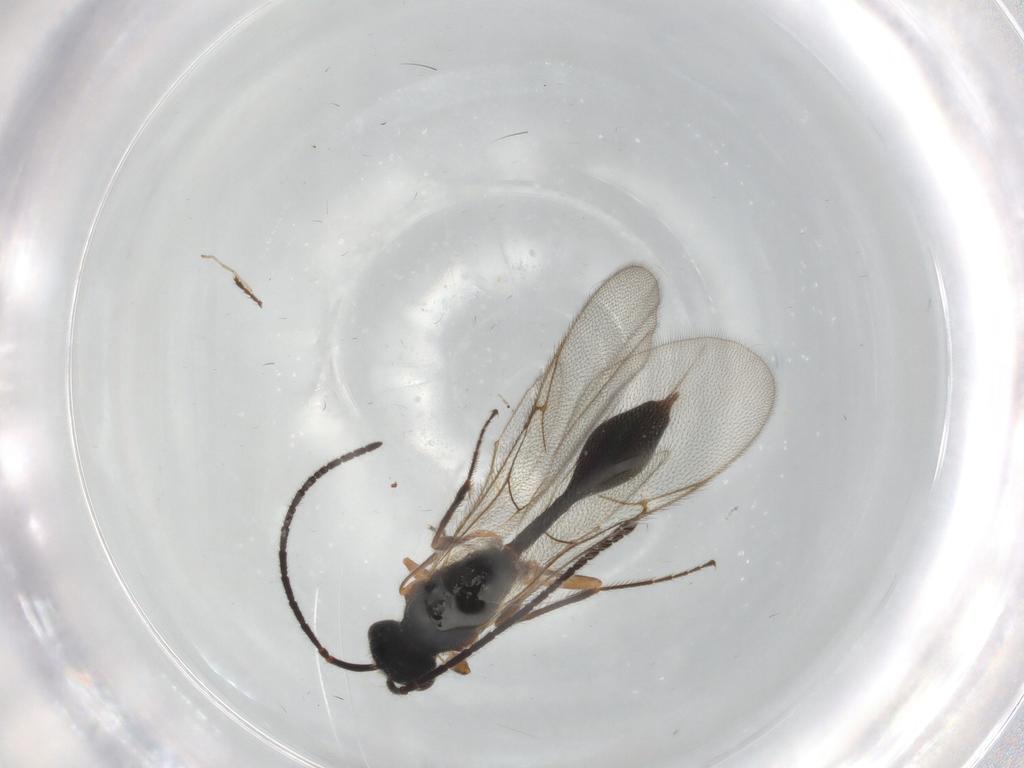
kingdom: Animalia
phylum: Arthropoda
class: Insecta
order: Hymenoptera
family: Diapriidae
